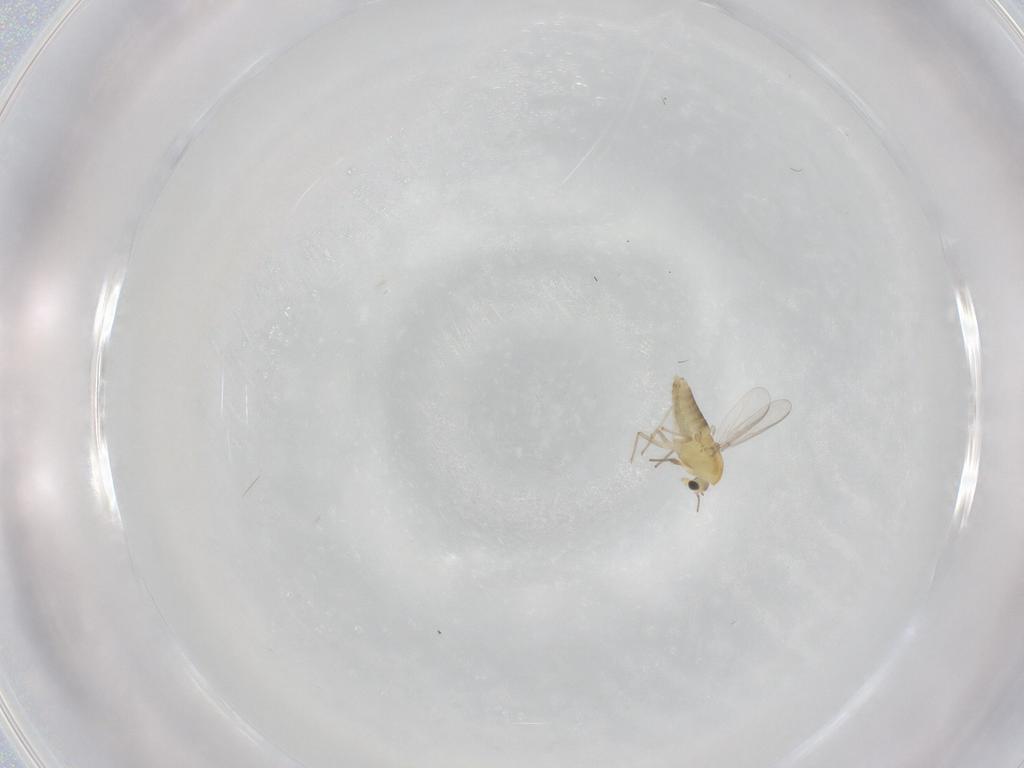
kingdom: Animalia
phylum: Arthropoda
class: Insecta
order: Diptera
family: Chironomidae
